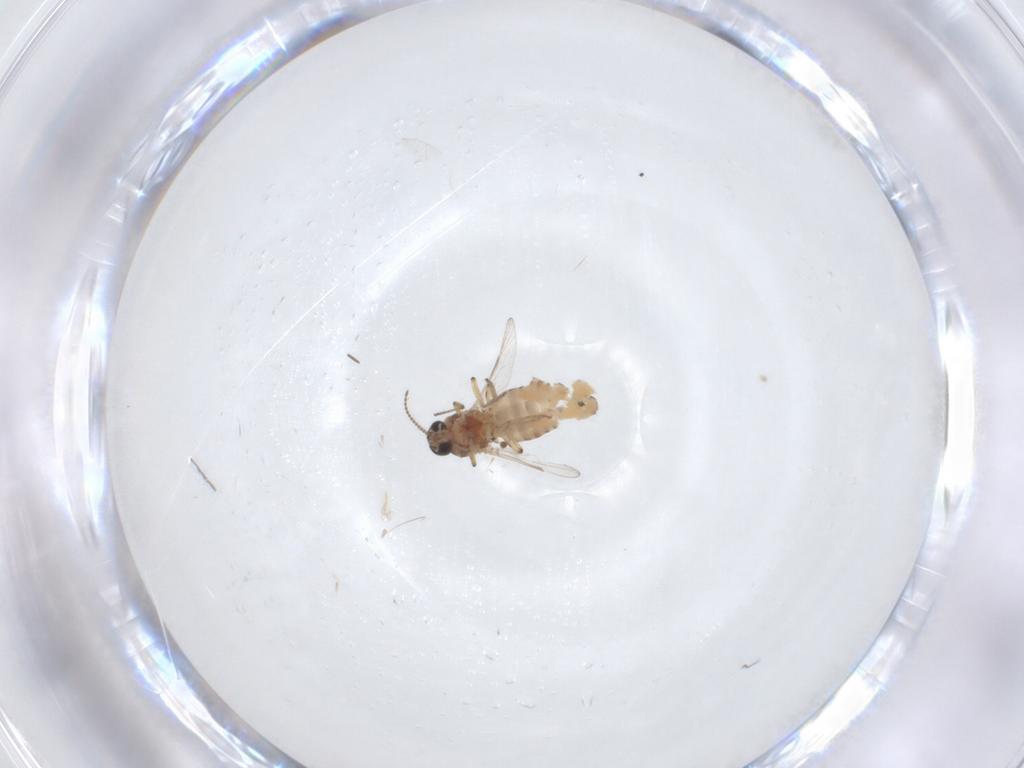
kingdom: Animalia
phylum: Arthropoda
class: Insecta
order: Diptera
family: Ceratopogonidae
